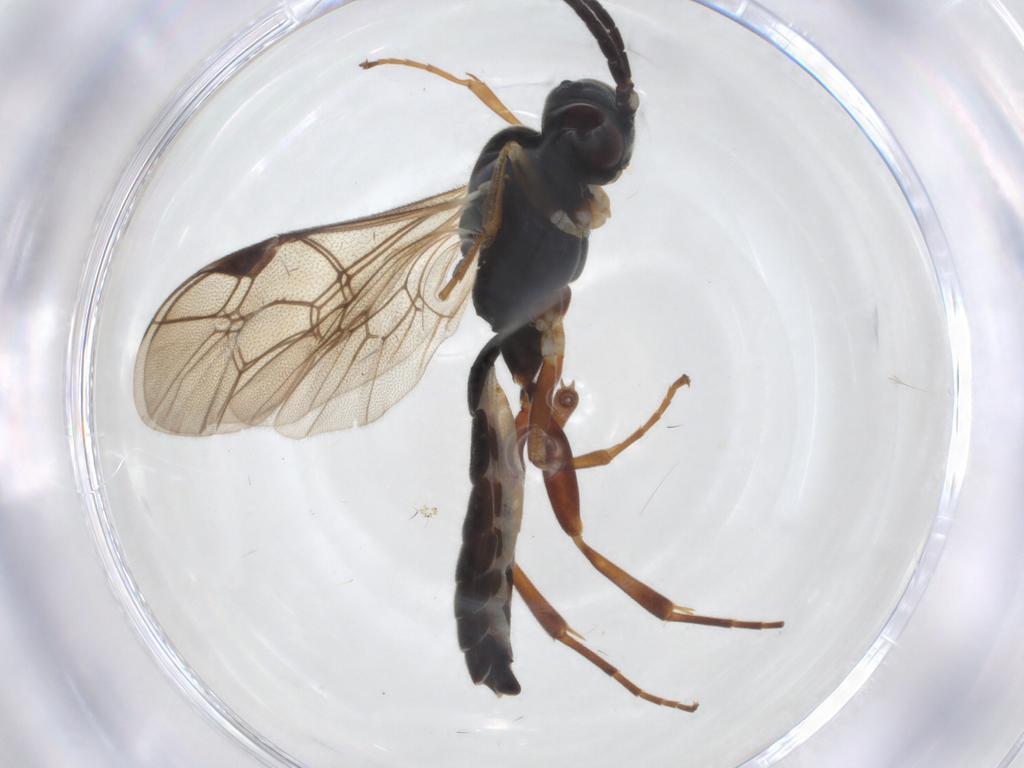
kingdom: Animalia
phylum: Arthropoda
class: Insecta
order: Hymenoptera
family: Ichneumonidae
